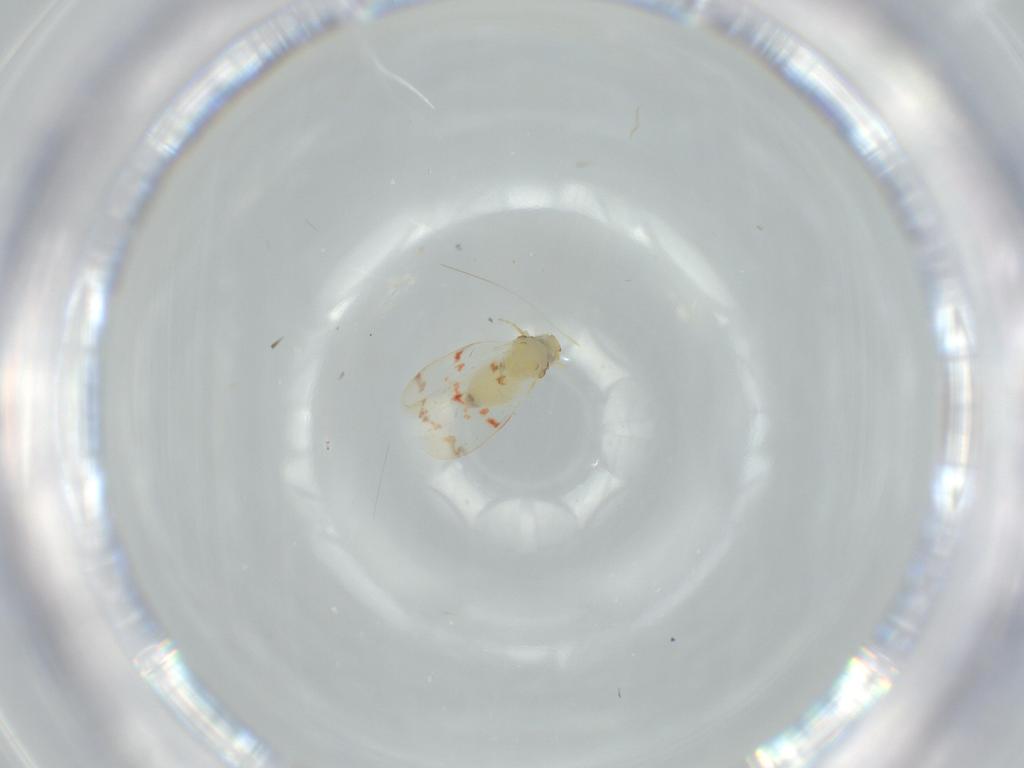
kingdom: Animalia
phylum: Arthropoda
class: Insecta
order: Hemiptera
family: Aleyrodidae
